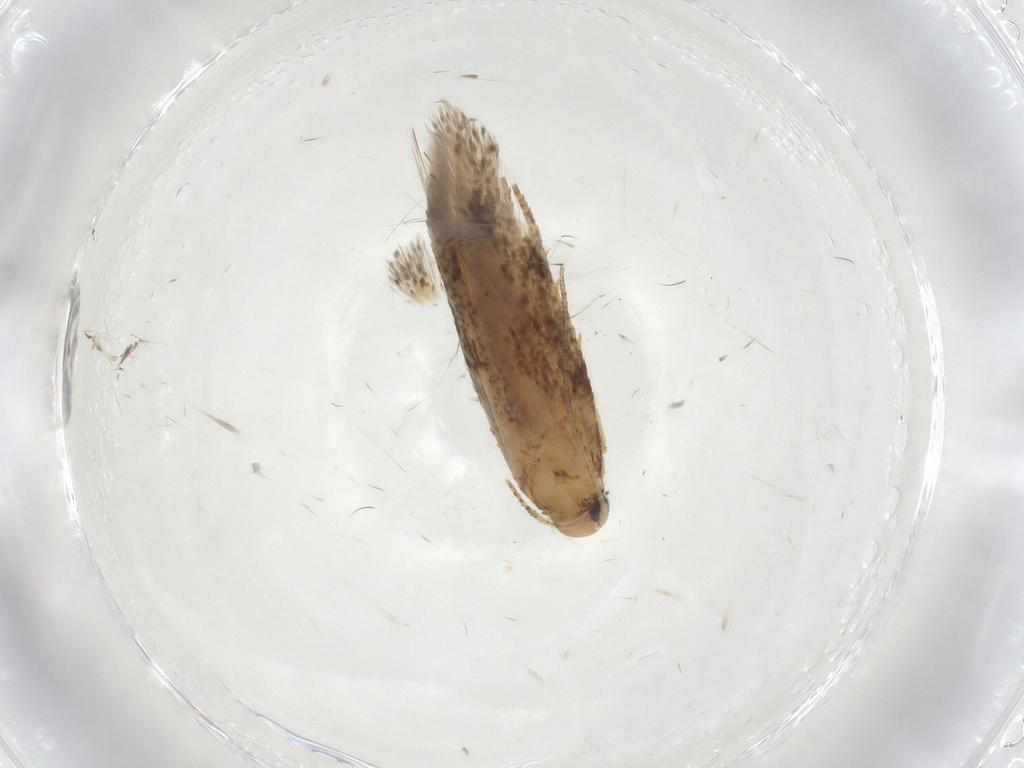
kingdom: Animalia
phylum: Arthropoda
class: Insecta
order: Lepidoptera
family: Gelechiidae
